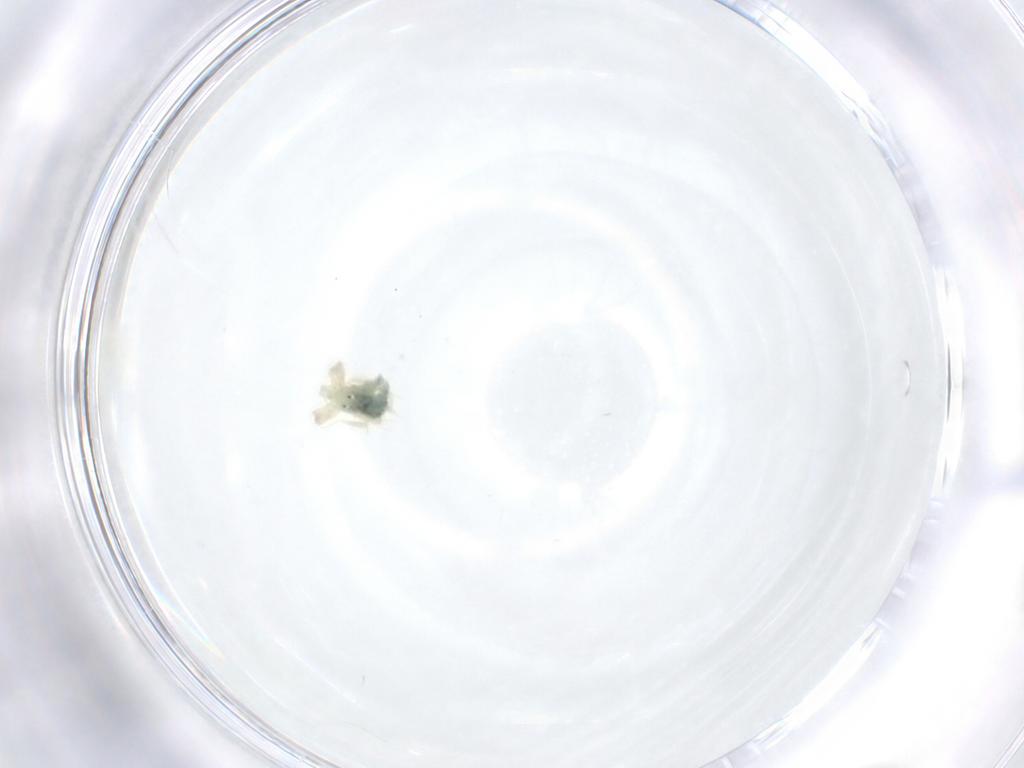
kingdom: Animalia
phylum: Arthropoda
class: Arachnida
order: Trombidiformes
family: Anystidae
